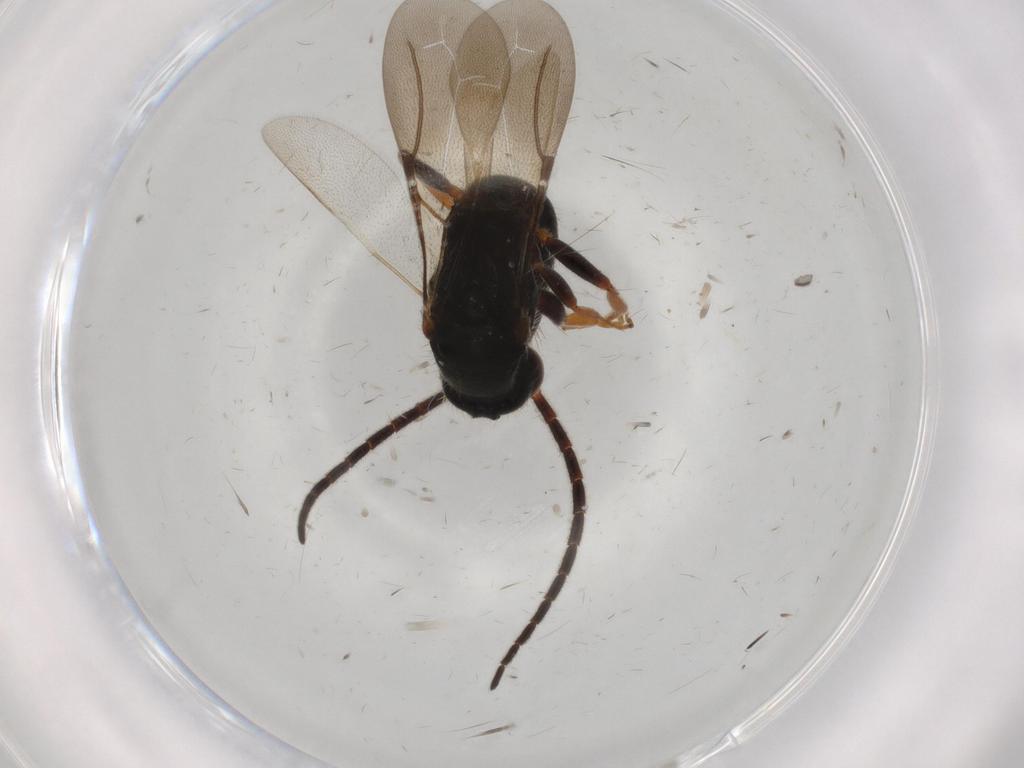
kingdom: Animalia
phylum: Arthropoda
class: Insecta
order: Hymenoptera
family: Bethylidae
